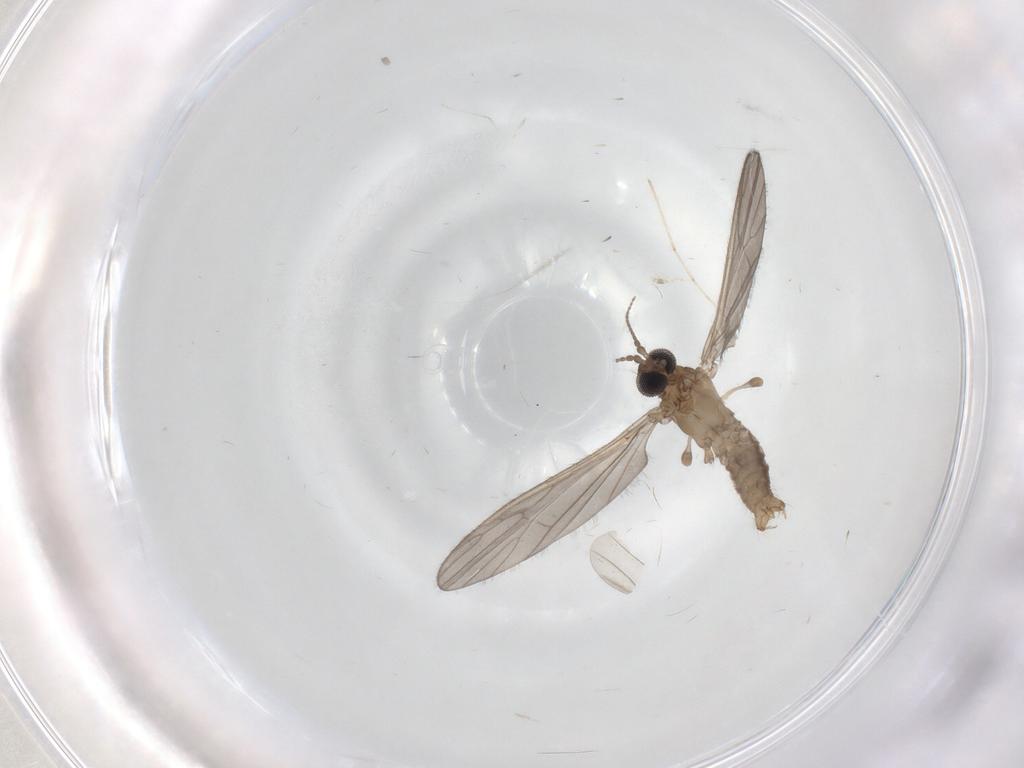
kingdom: Animalia
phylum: Arthropoda
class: Insecta
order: Diptera
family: Limoniidae
